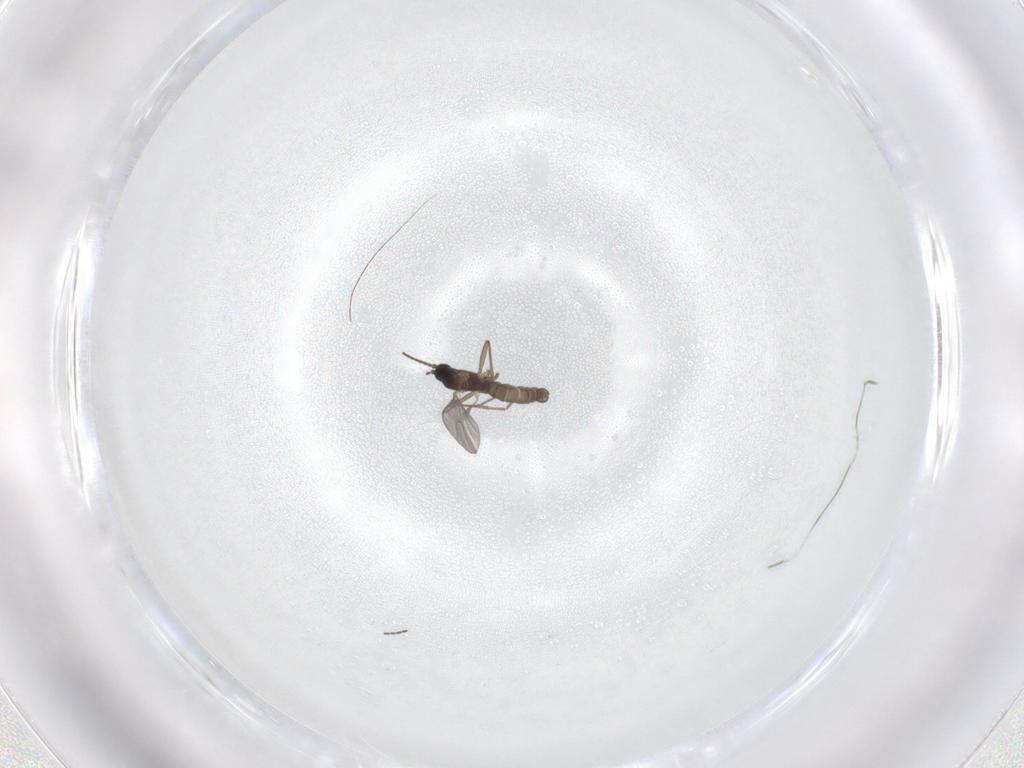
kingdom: Animalia
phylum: Arthropoda
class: Insecta
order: Diptera
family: Sciaridae
